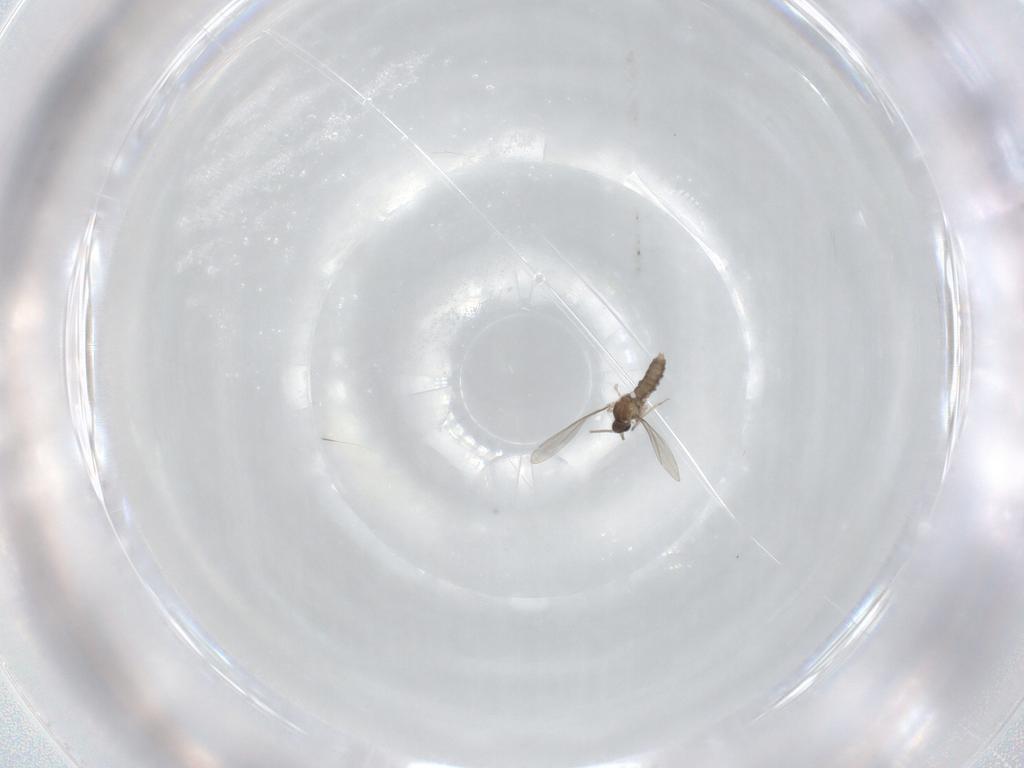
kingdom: Animalia
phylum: Arthropoda
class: Insecta
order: Diptera
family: Cecidomyiidae
